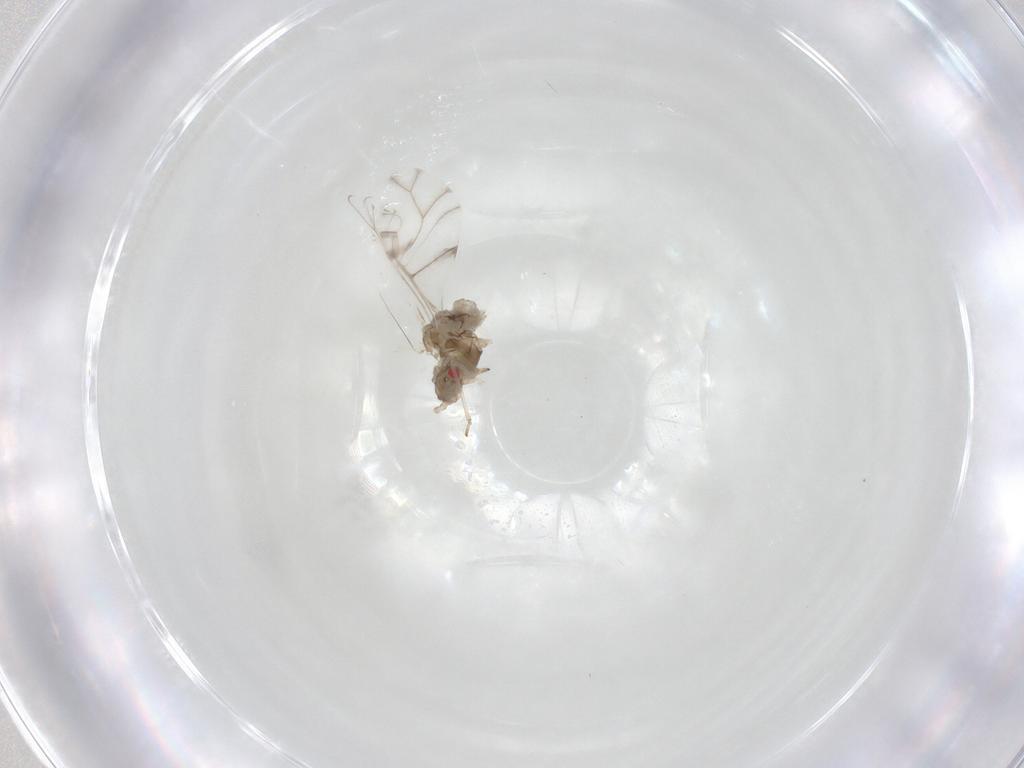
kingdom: Animalia
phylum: Arthropoda
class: Insecta
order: Hemiptera
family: Aphididae
